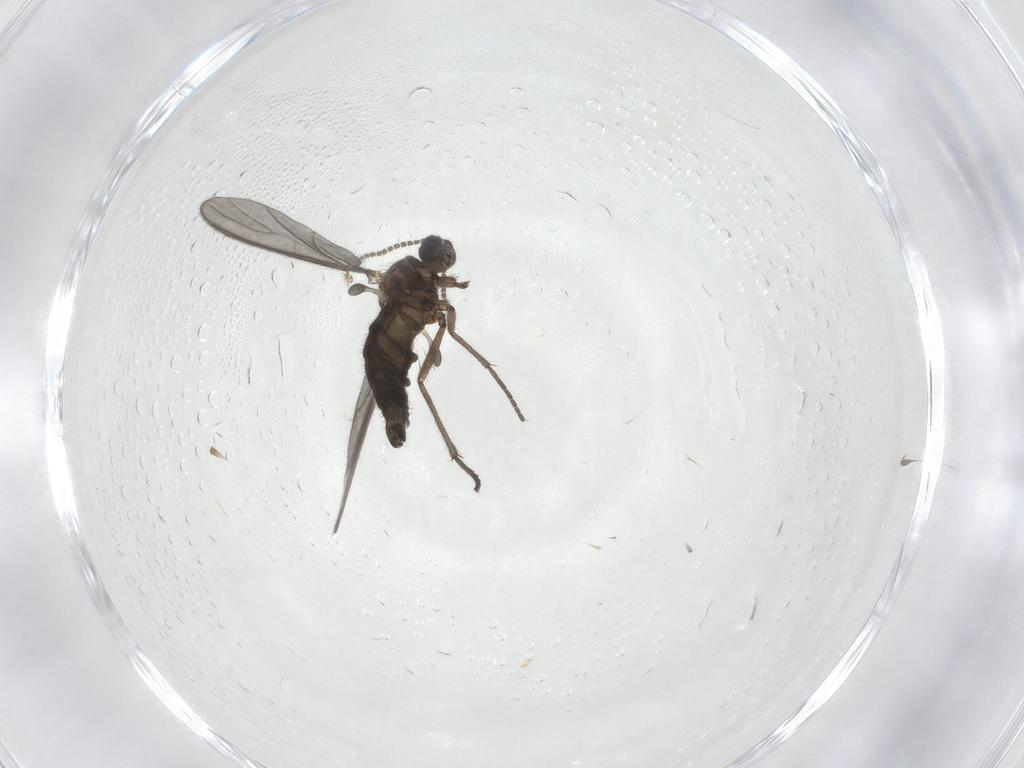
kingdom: Animalia
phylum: Arthropoda
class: Insecta
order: Diptera
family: Sciaridae
